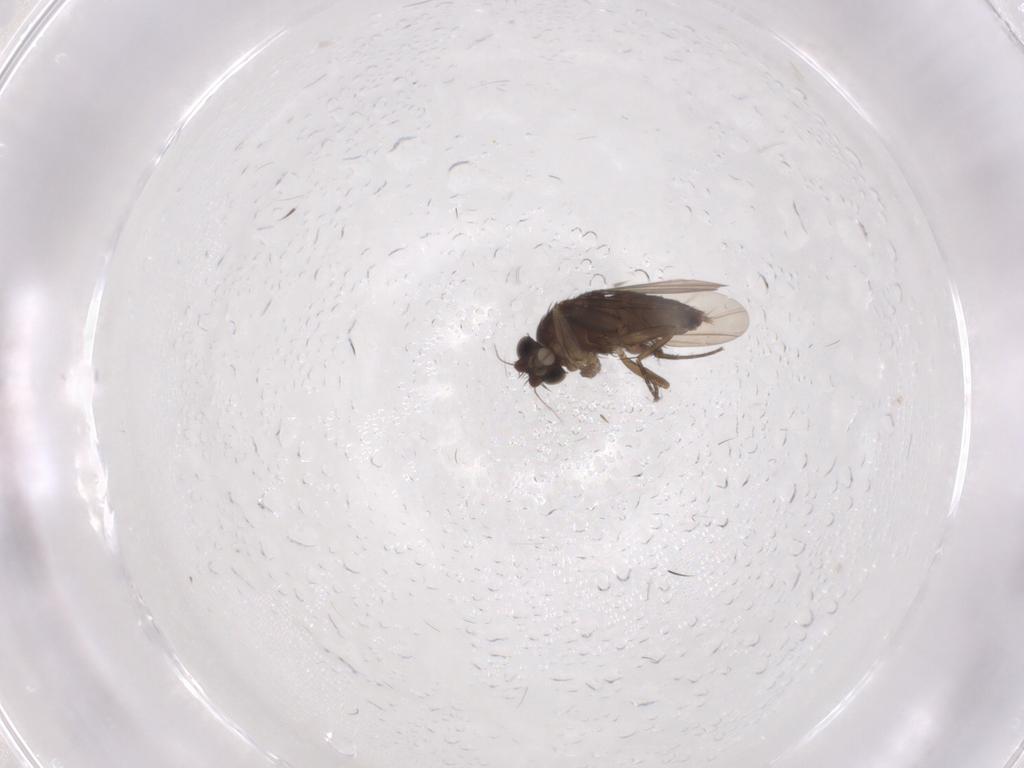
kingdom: Animalia
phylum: Arthropoda
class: Insecta
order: Diptera
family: Phoridae
